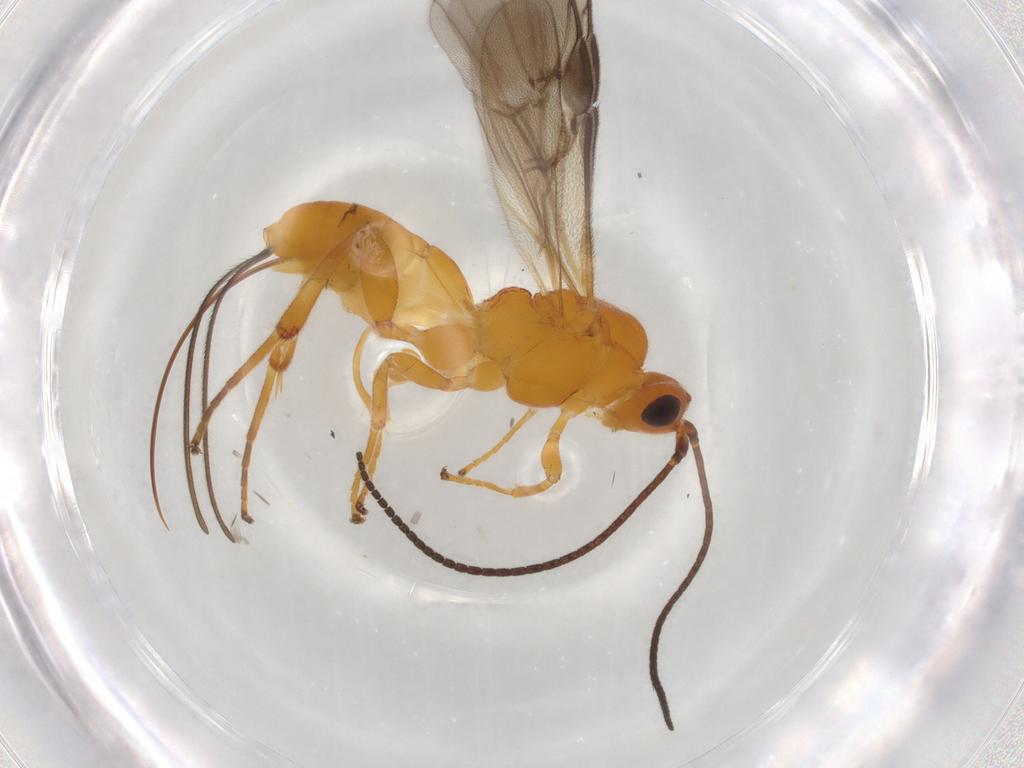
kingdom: Animalia
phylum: Arthropoda
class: Insecta
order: Hymenoptera
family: Braconidae
